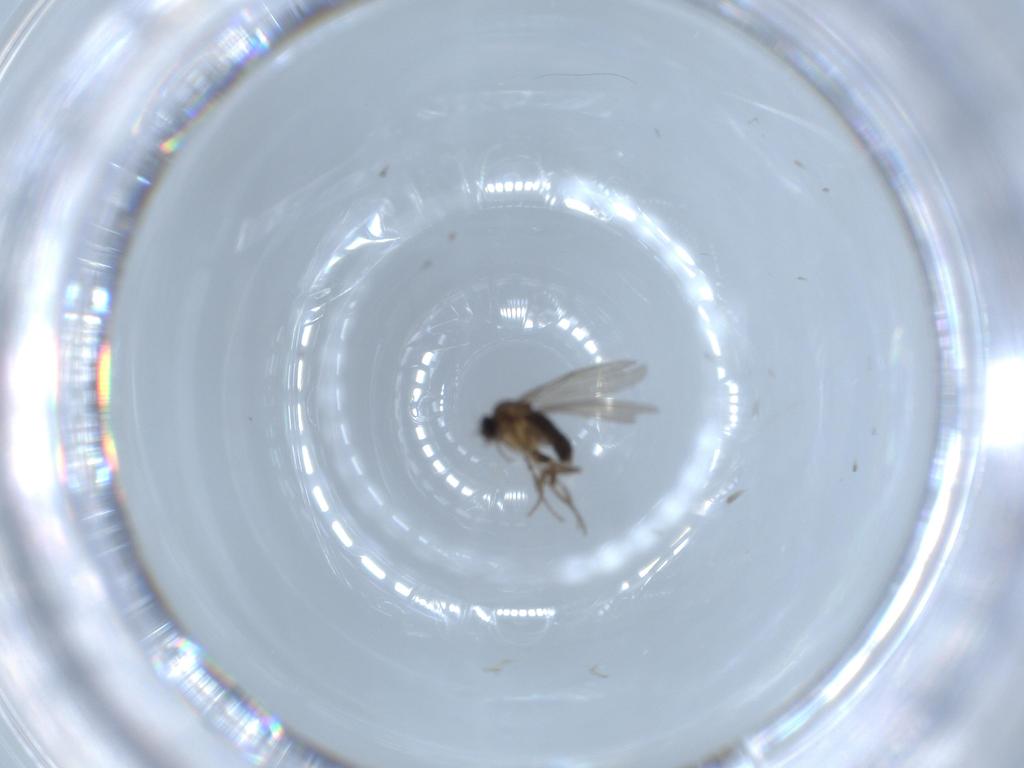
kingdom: Animalia
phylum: Arthropoda
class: Insecta
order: Diptera
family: Phoridae
